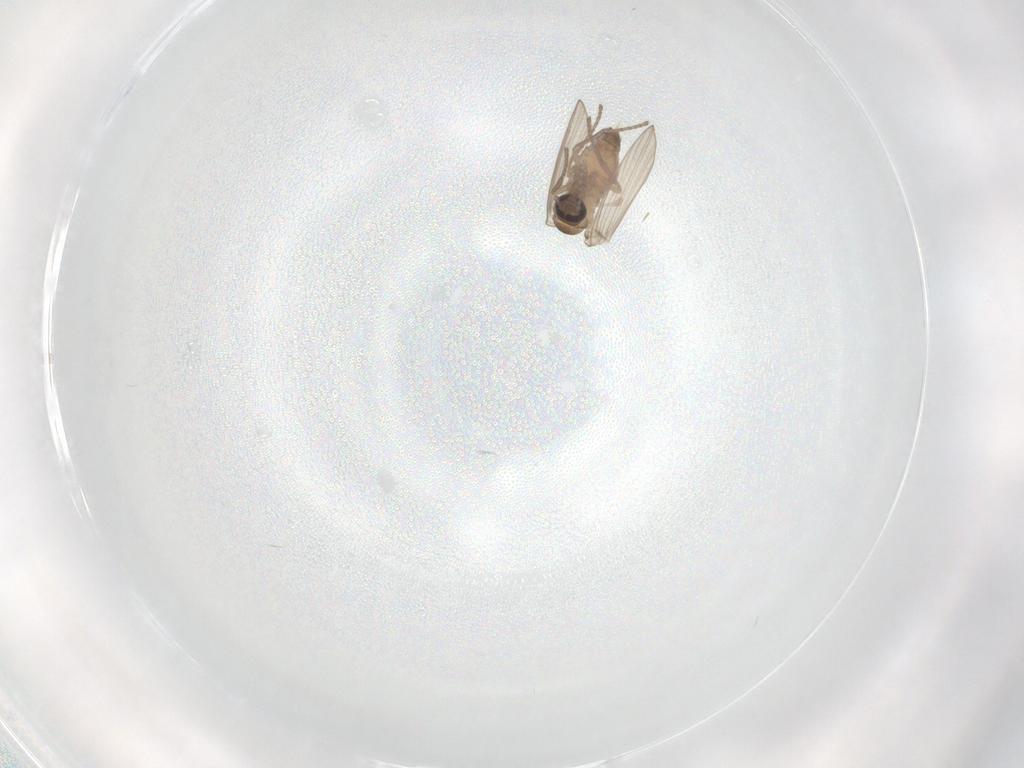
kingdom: Animalia
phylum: Arthropoda
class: Insecta
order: Diptera
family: Psychodidae
